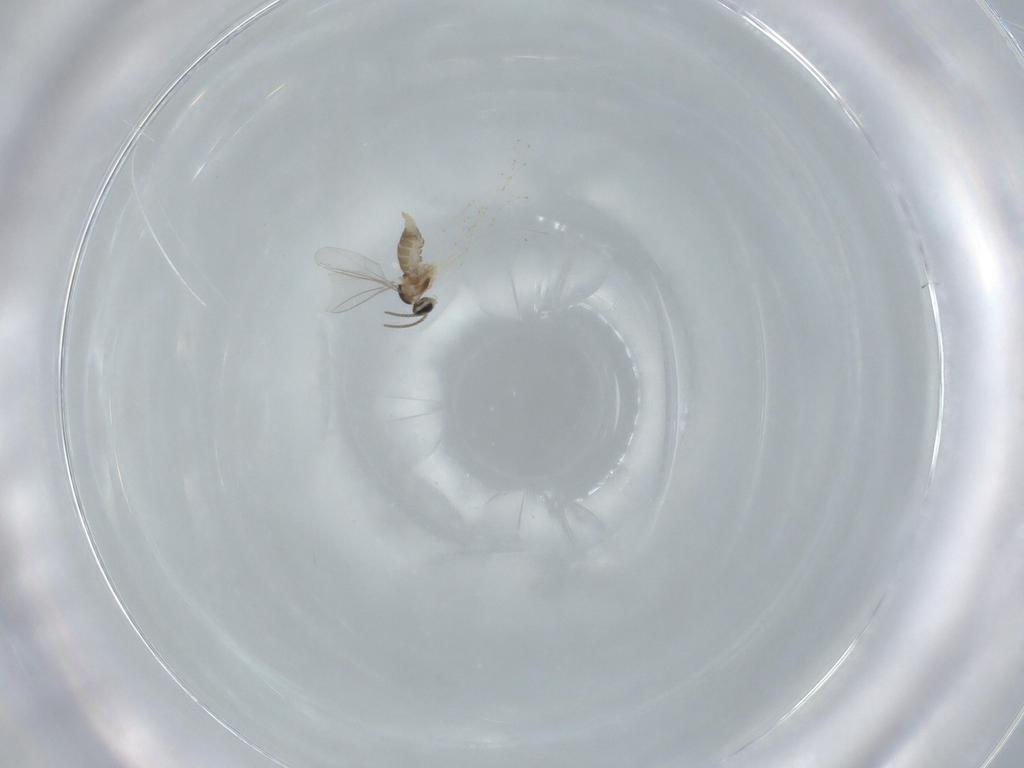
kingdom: Animalia
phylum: Arthropoda
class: Insecta
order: Diptera
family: Cecidomyiidae
